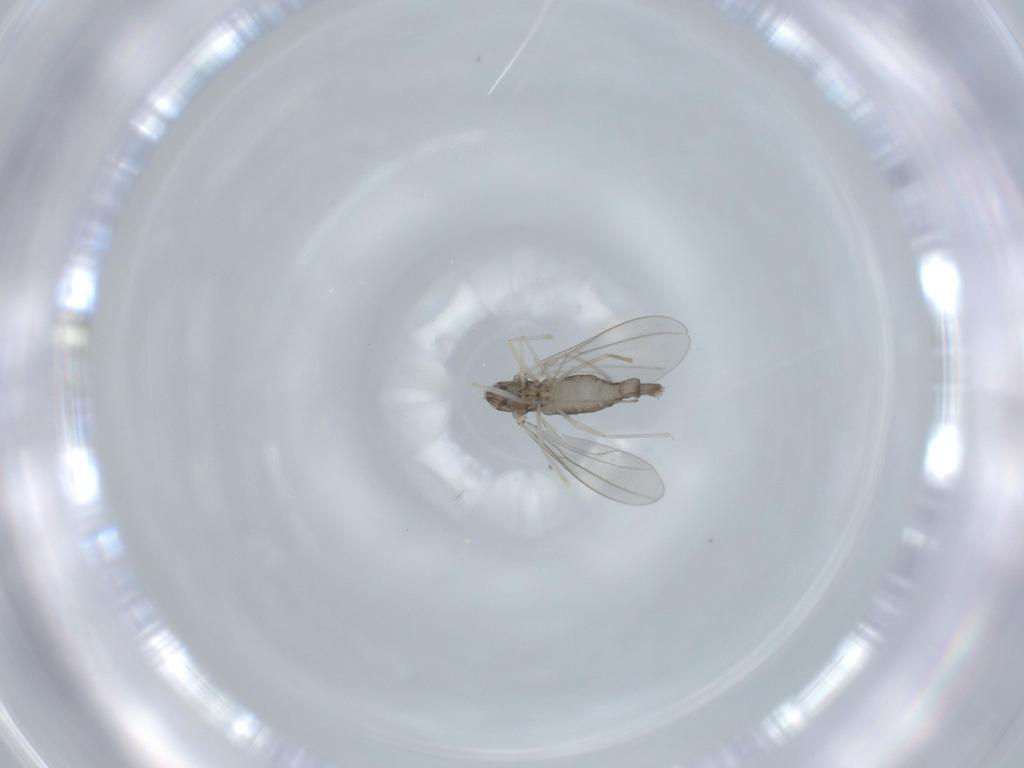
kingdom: Animalia
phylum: Arthropoda
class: Insecta
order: Diptera
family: Cecidomyiidae
